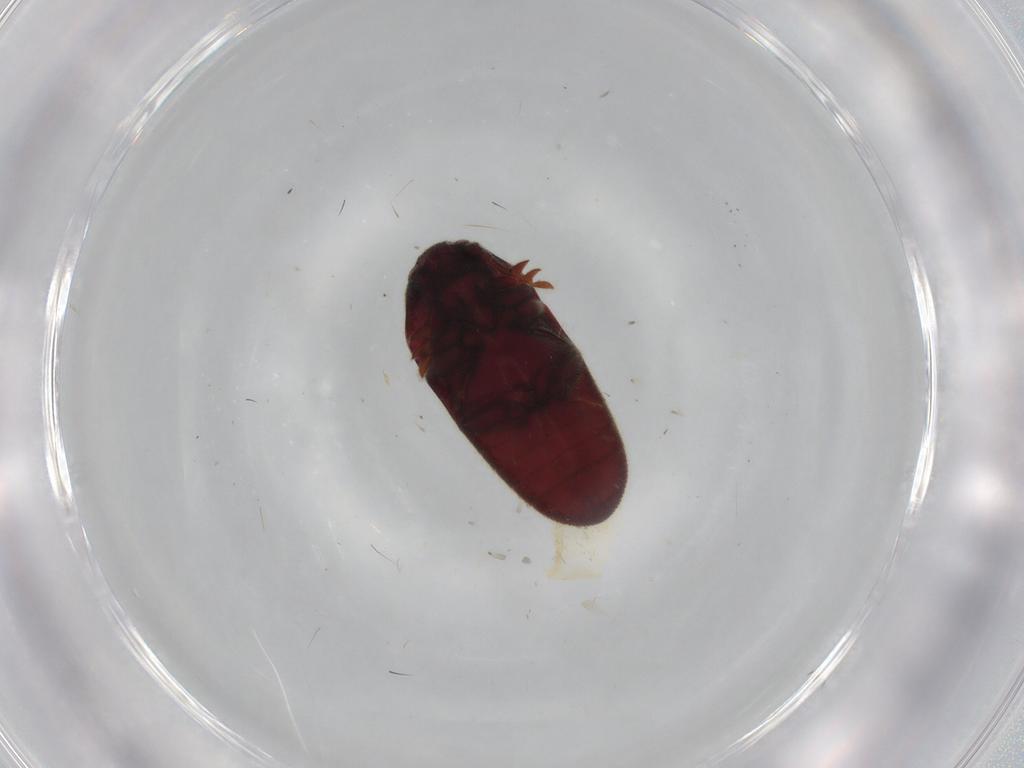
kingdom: Animalia
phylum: Arthropoda
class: Insecta
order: Coleoptera
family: Throscidae
